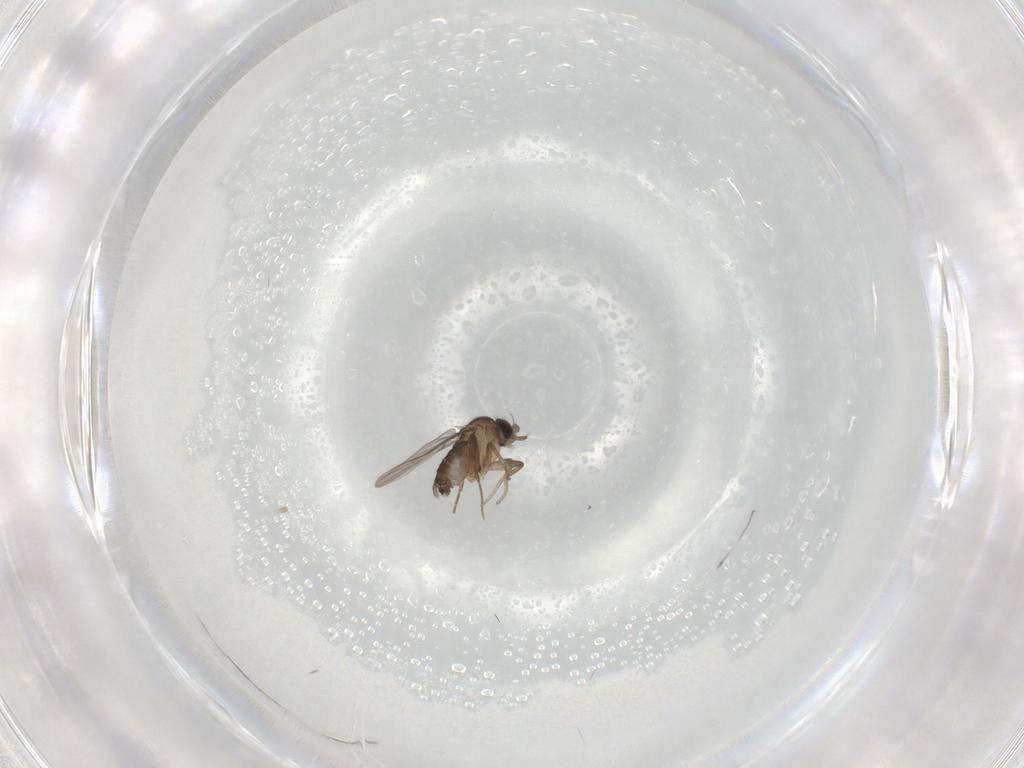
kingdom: Animalia
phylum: Arthropoda
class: Insecta
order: Diptera
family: Phoridae
